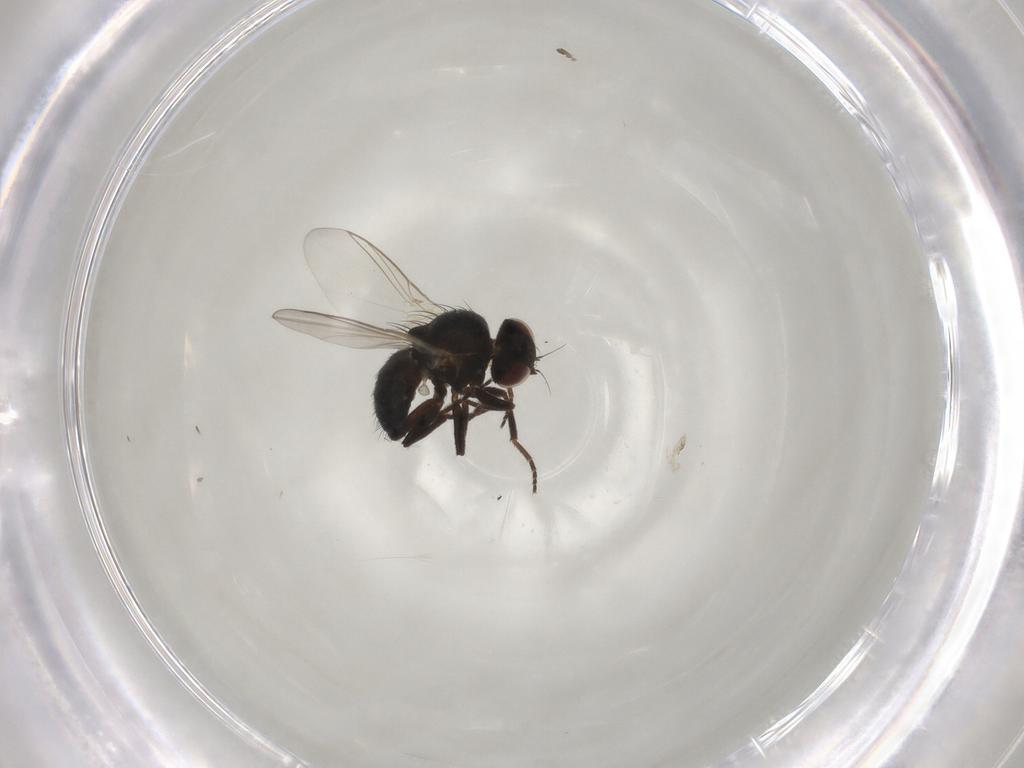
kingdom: Animalia
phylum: Arthropoda
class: Insecta
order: Diptera
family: Agromyzidae
